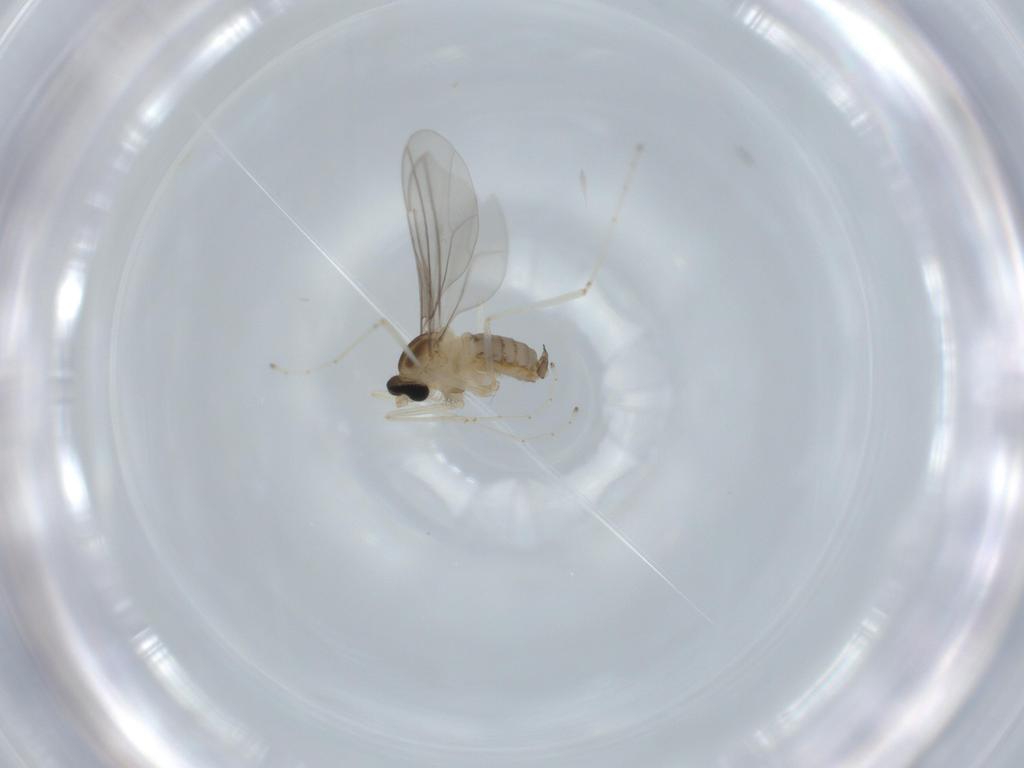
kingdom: Animalia
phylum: Arthropoda
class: Insecta
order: Diptera
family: Cecidomyiidae
